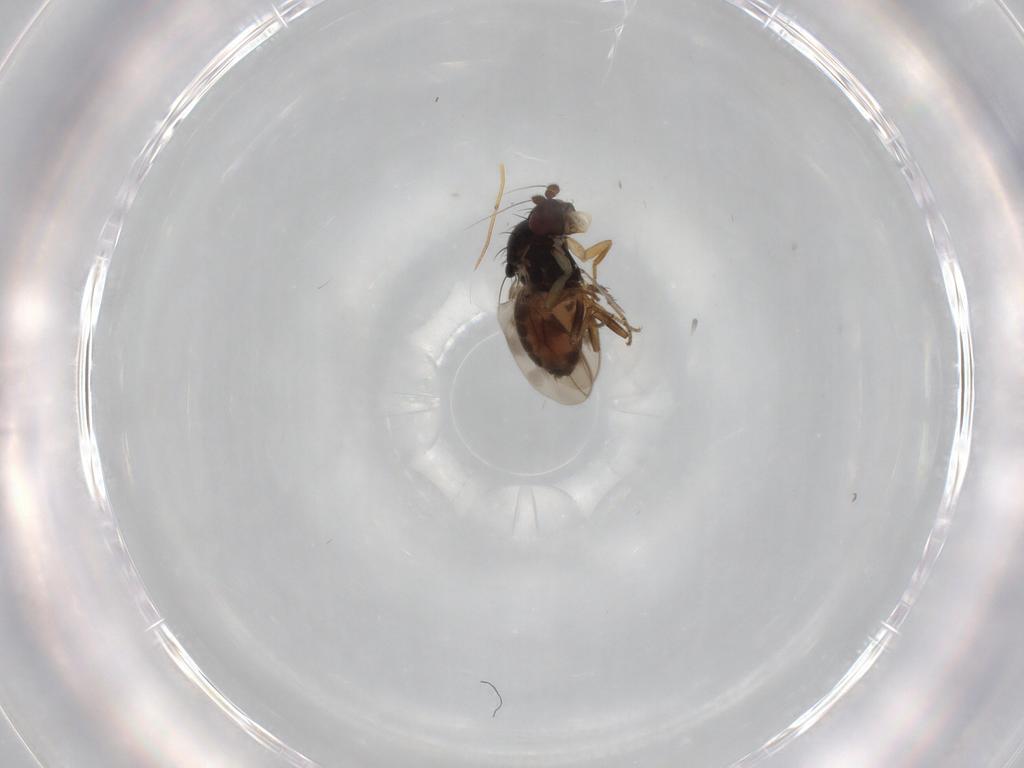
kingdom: Animalia
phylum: Arthropoda
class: Insecta
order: Diptera
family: Sphaeroceridae
